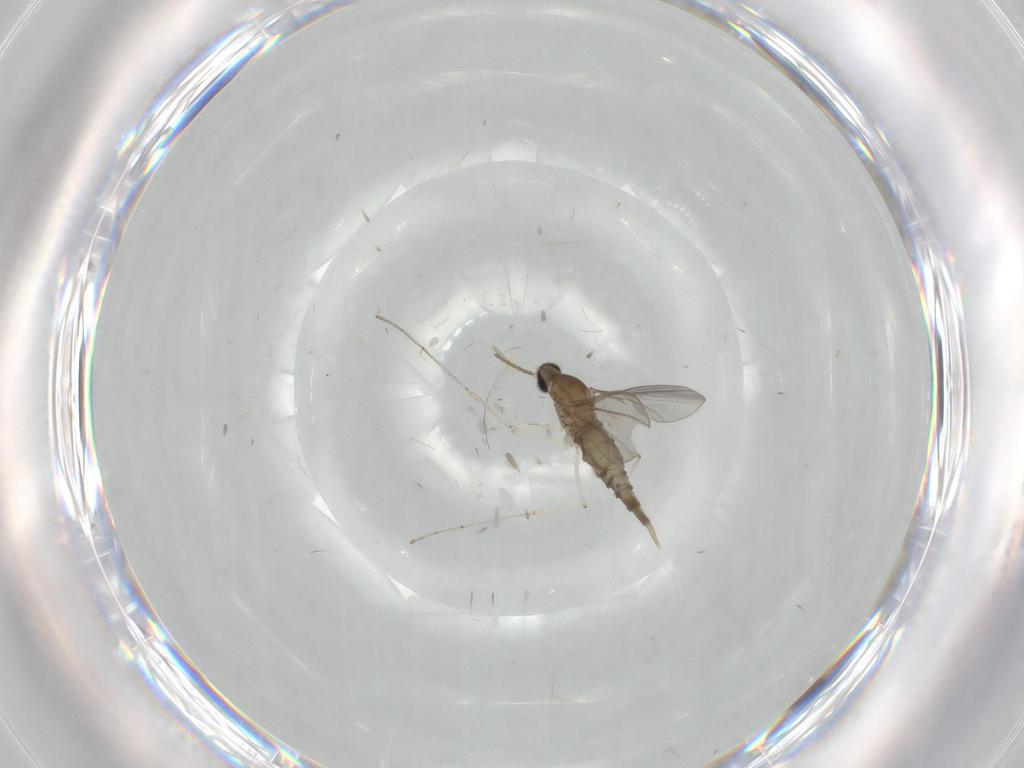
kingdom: Animalia
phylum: Arthropoda
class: Insecta
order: Diptera
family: Cecidomyiidae
